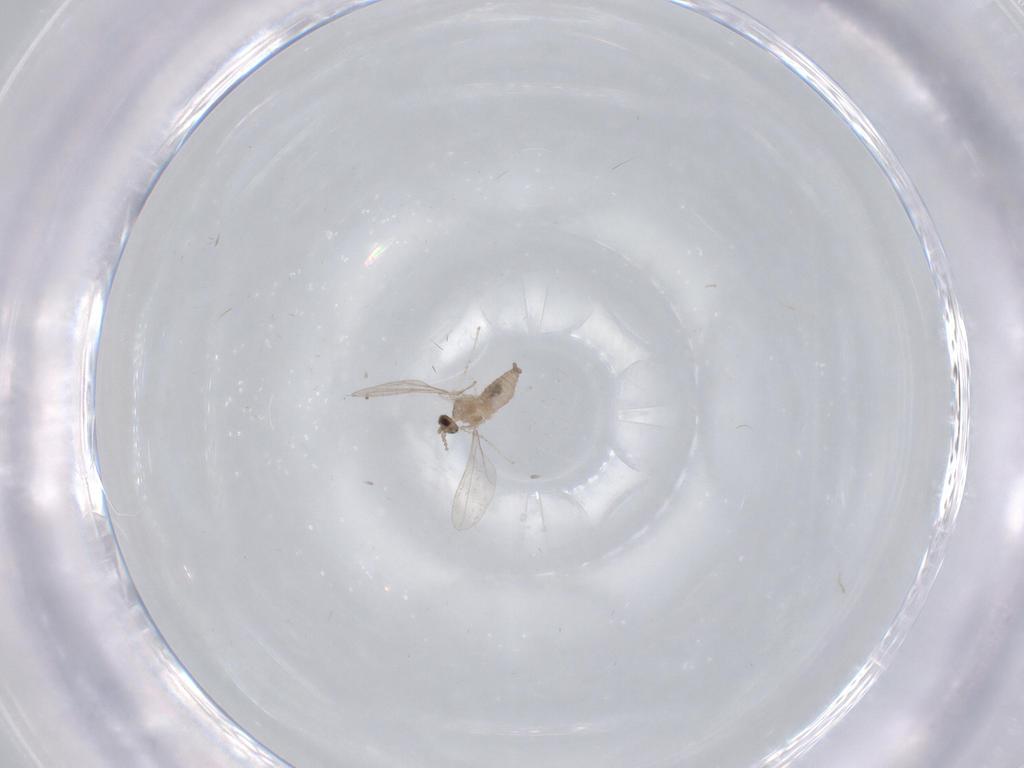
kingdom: Animalia
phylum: Arthropoda
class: Insecta
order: Diptera
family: Cecidomyiidae
